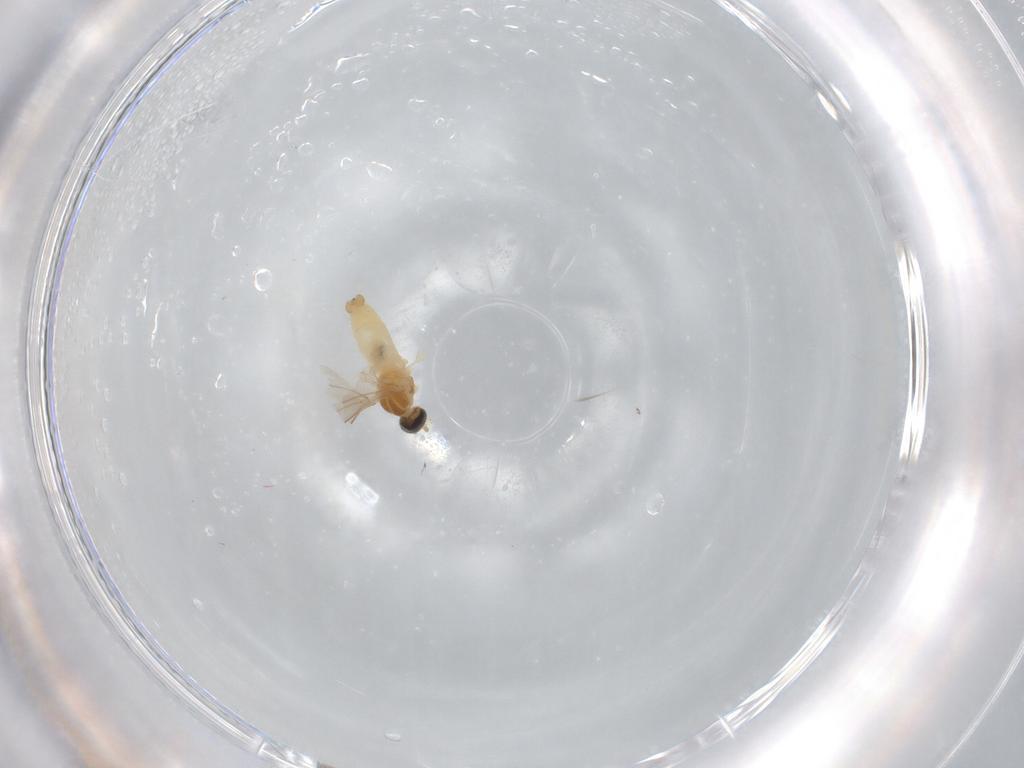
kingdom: Animalia
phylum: Arthropoda
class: Insecta
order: Diptera
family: Cecidomyiidae
